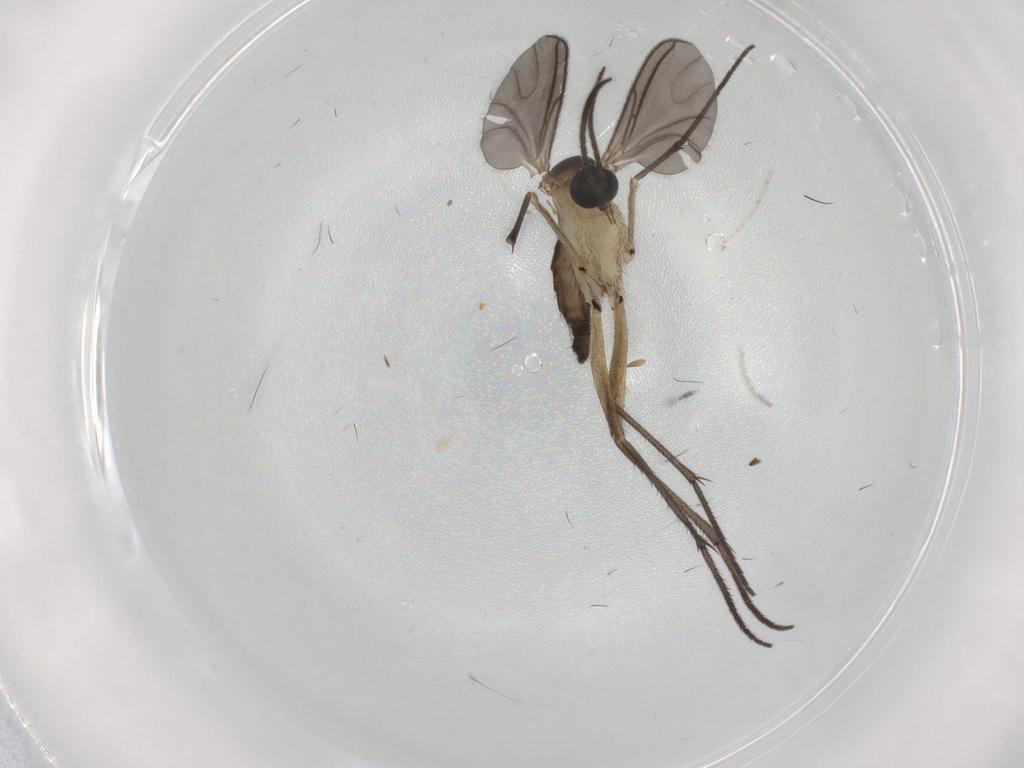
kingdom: Animalia
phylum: Arthropoda
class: Insecta
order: Diptera
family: Sciaridae
